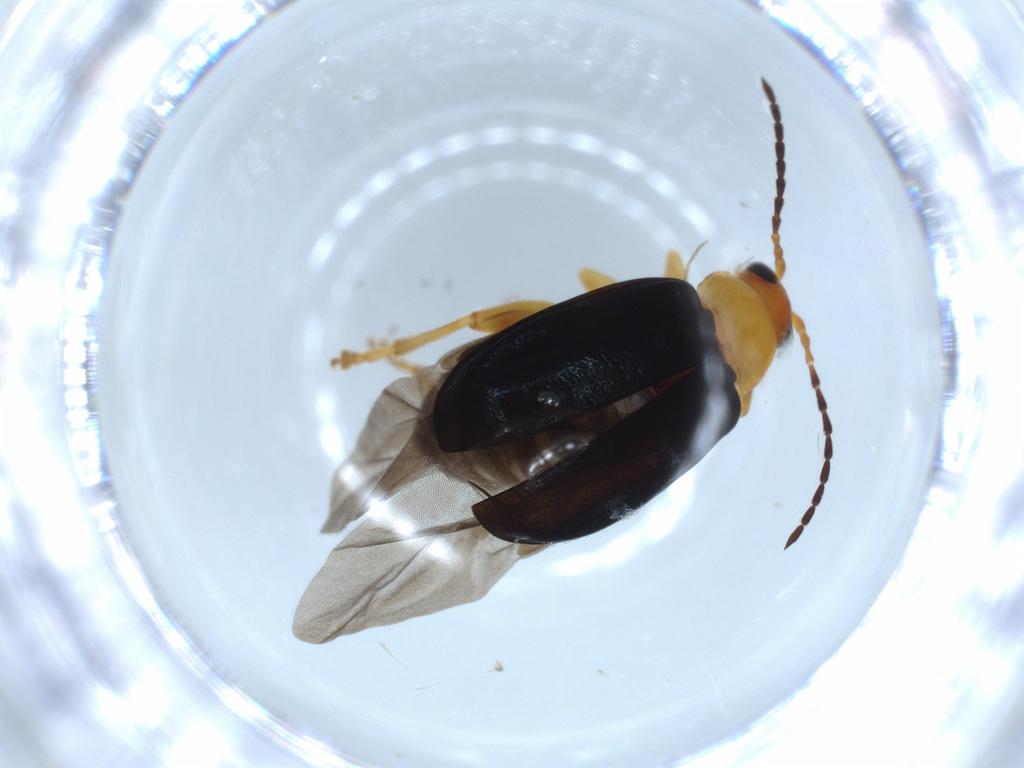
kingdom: Animalia
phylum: Arthropoda
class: Insecta
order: Coleoptera
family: Chrysomelidae
